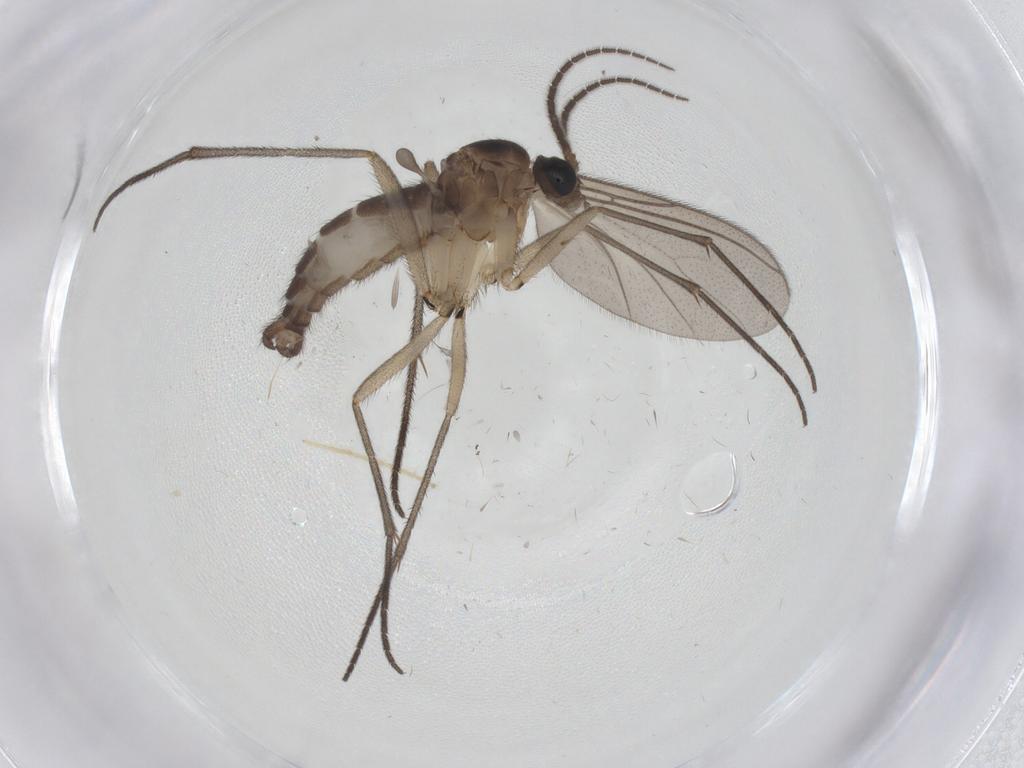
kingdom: Animalia
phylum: Arthropoda
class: Insecta
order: Diptera
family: Sciaridae
